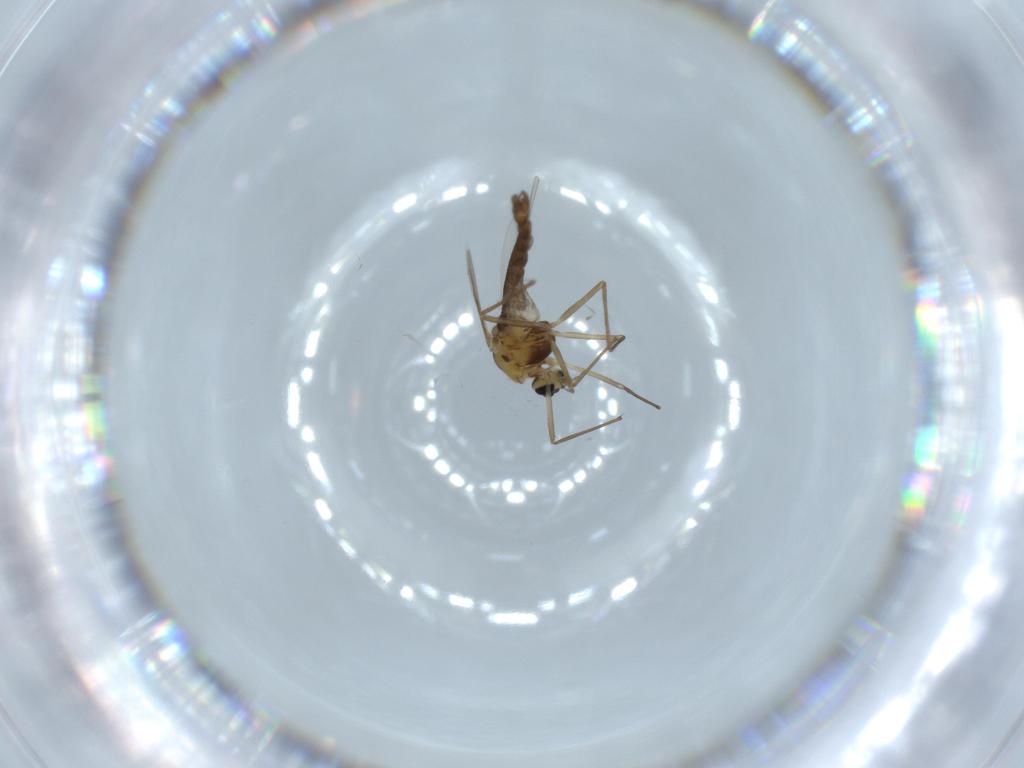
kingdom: Animalia
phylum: Arthropoda
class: Insecta
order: Diptera
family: Chironomidae
